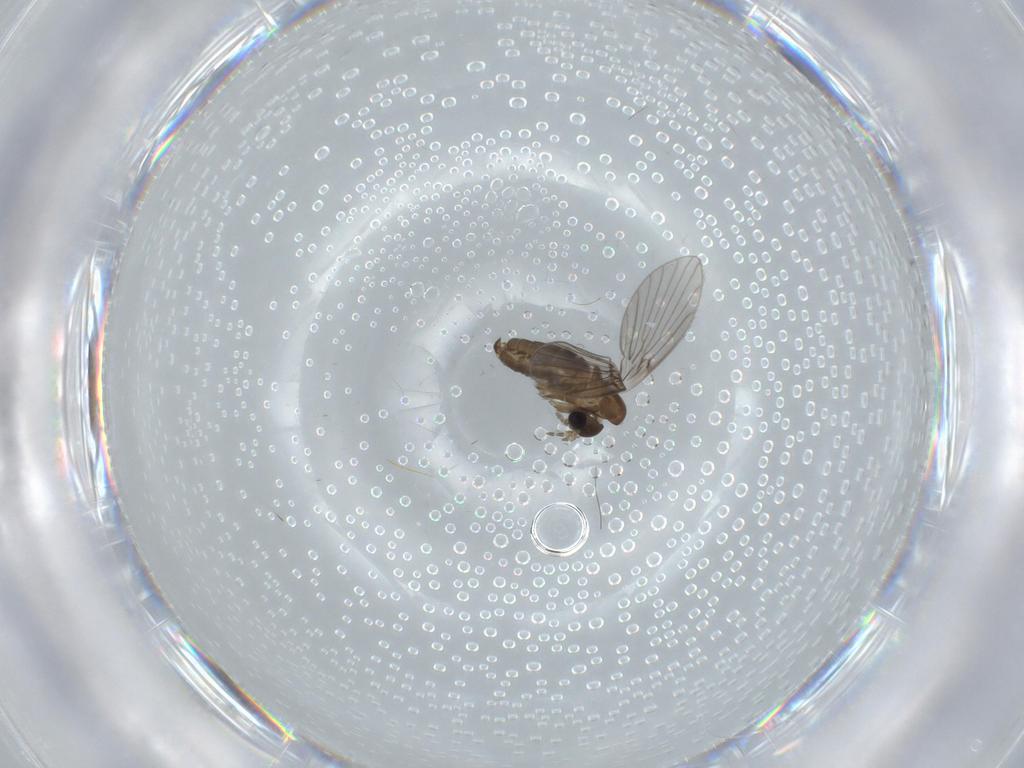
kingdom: Animalia
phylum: Arthropoda
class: Insecta
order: Diptera
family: Psychodidae
